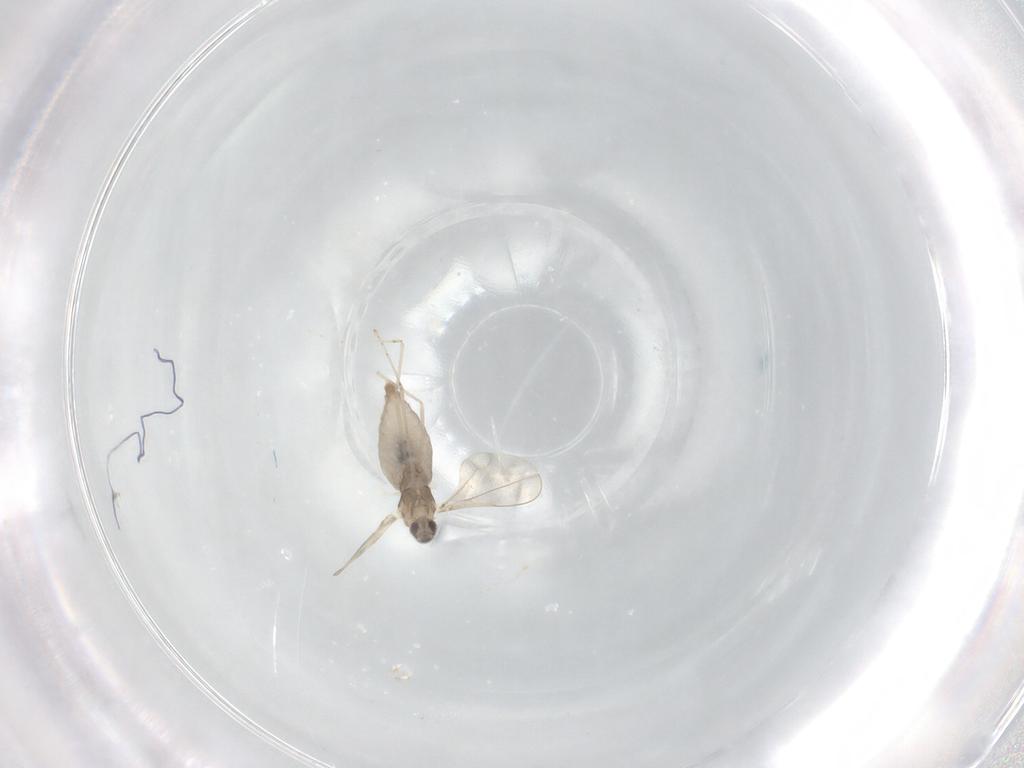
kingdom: Animalia
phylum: Arthropoda
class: Insecta
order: Diptera
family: Cecidomyiidae
